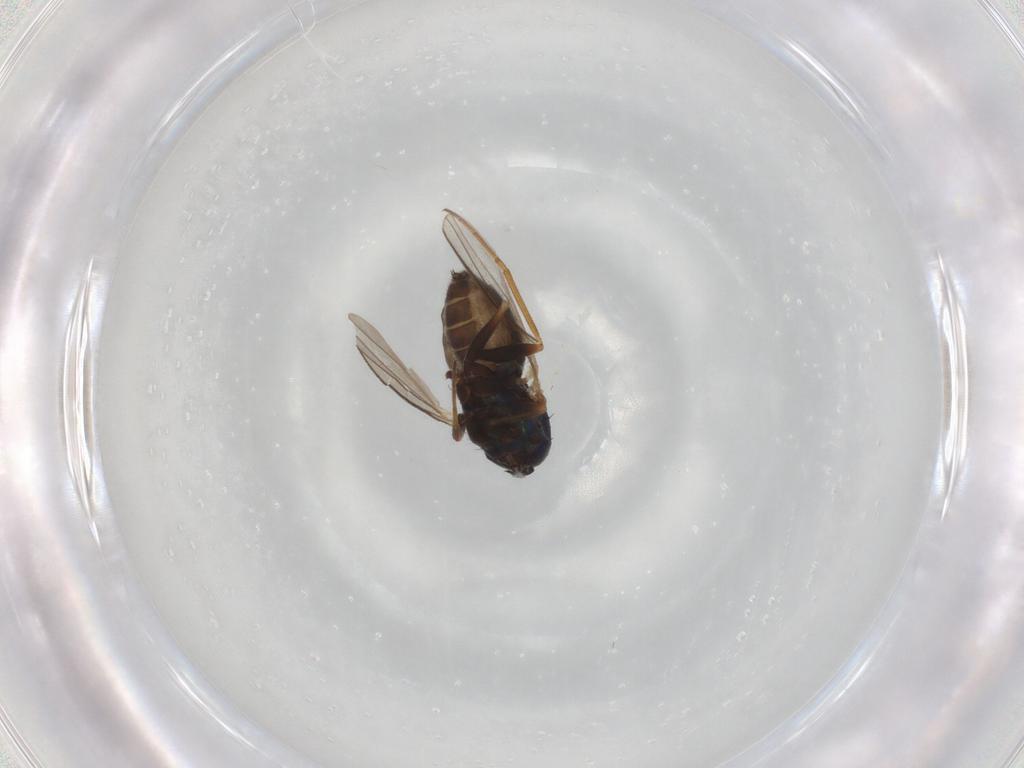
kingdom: Animalia
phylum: Arthropoda
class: Insecta
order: Diptera
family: Dolichopodidae
